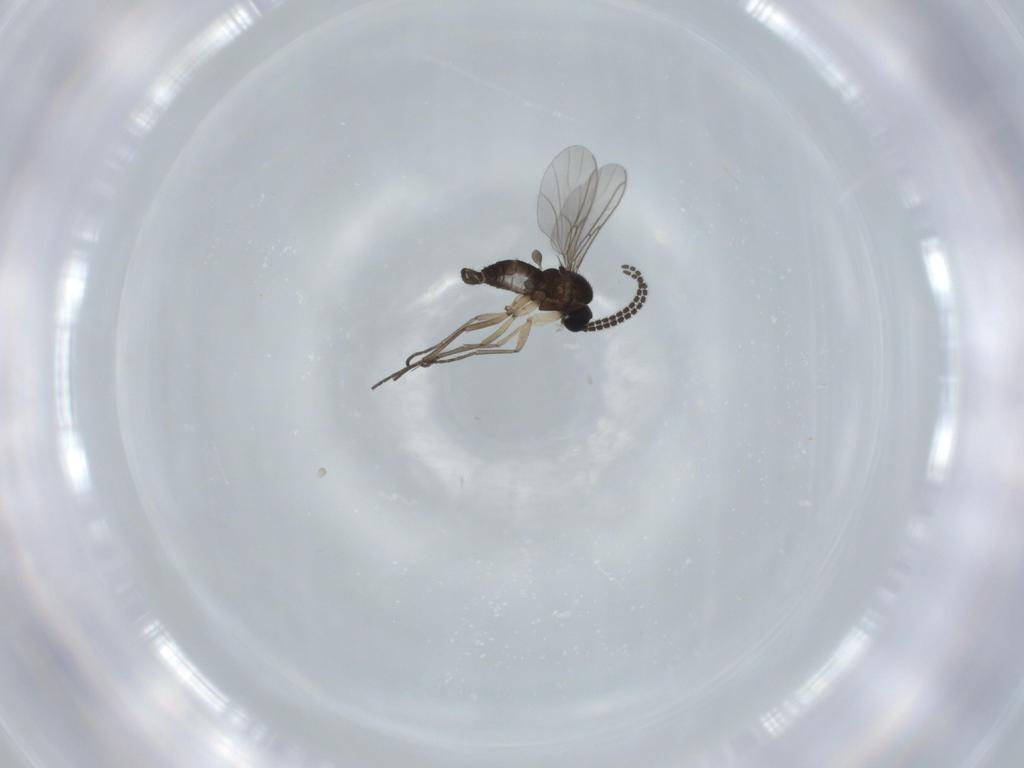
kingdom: Animalia
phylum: Arthropoda
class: Insecta
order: Diptera
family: Sciaridae
